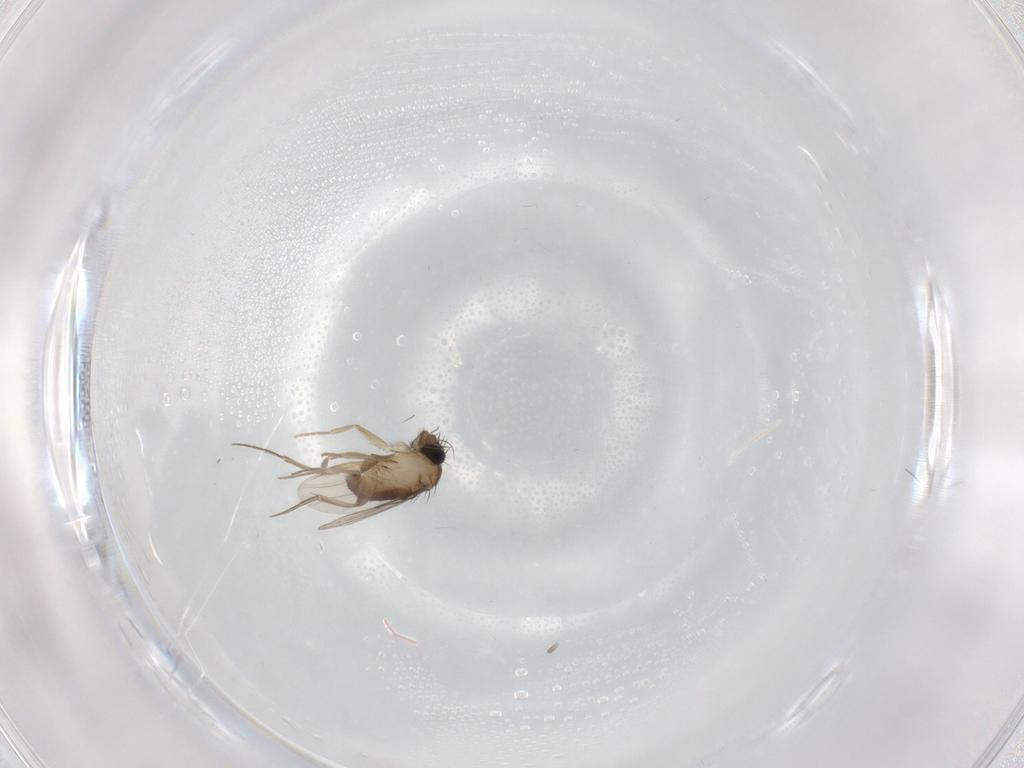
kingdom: Animalia
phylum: Arthropoda
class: Insecta
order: Diptera
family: Phoridae
